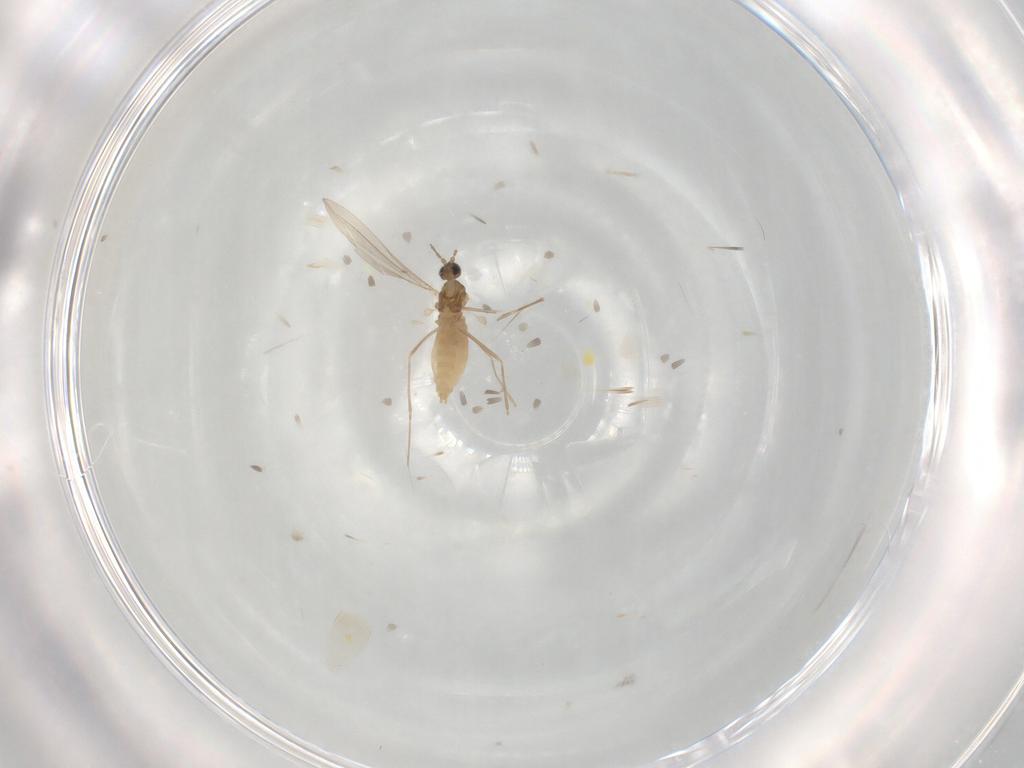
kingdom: Animalia
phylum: Arthropoda
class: Insecta
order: Diptera
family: Cecidomyiidae
